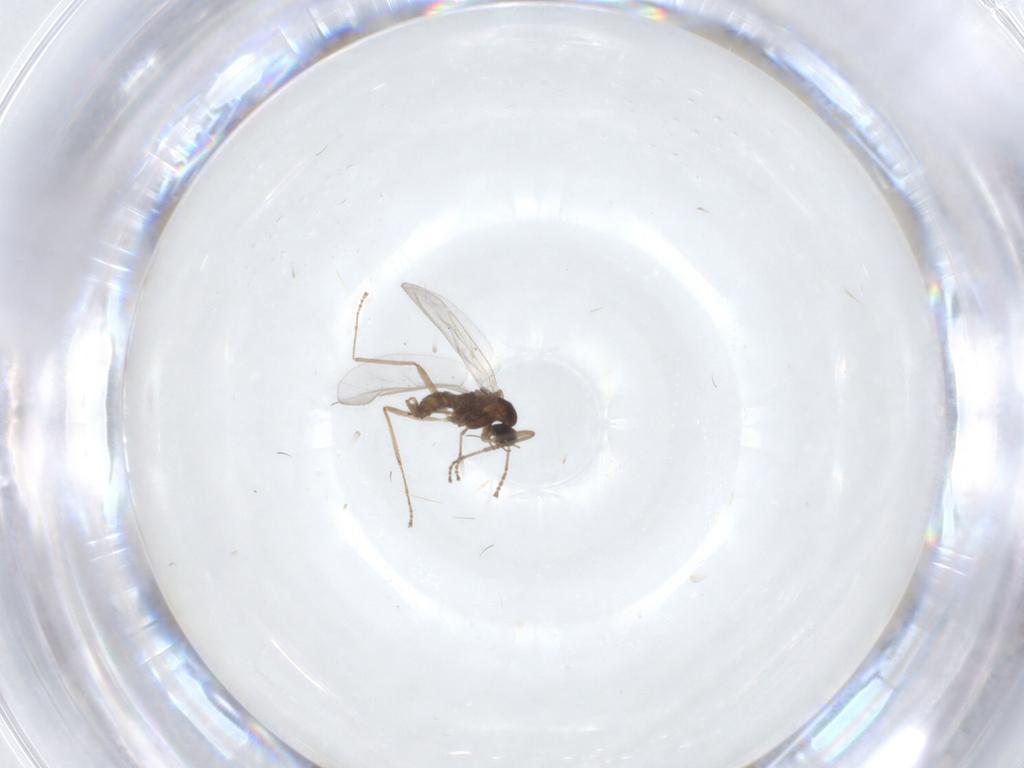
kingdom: Animalia
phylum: Arthropoda
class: Insecta
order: Diptera
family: Cecidomyiidae
